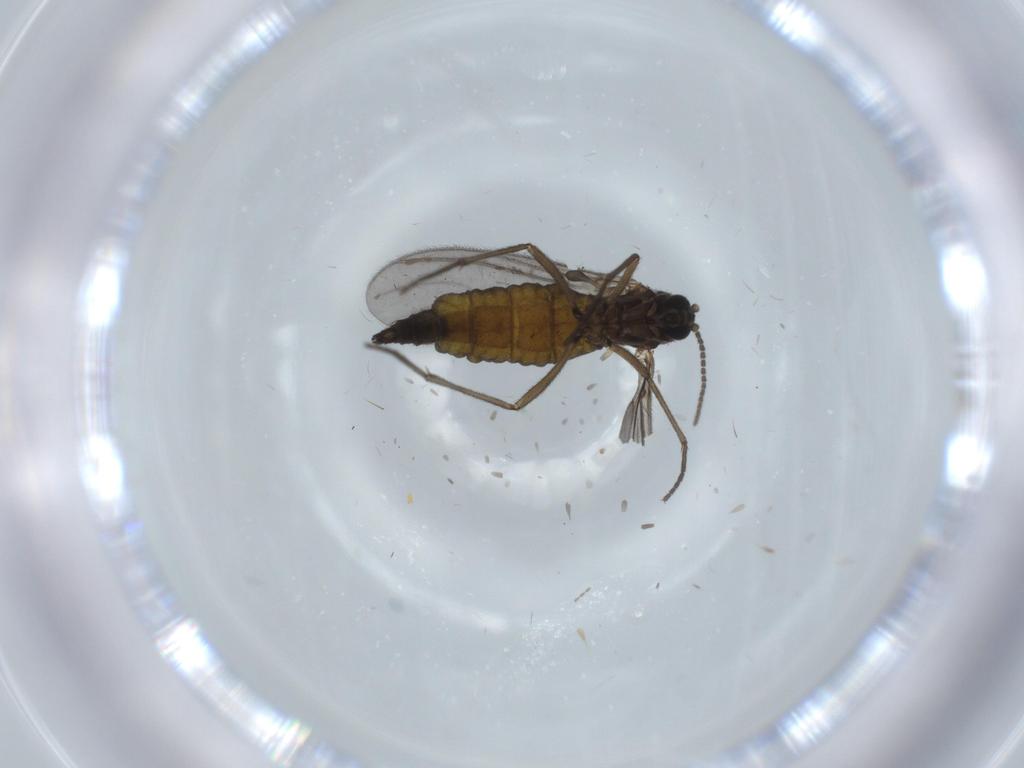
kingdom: Animalia
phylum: Arthropoda
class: Insecta
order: Diptera
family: Sciaridae
